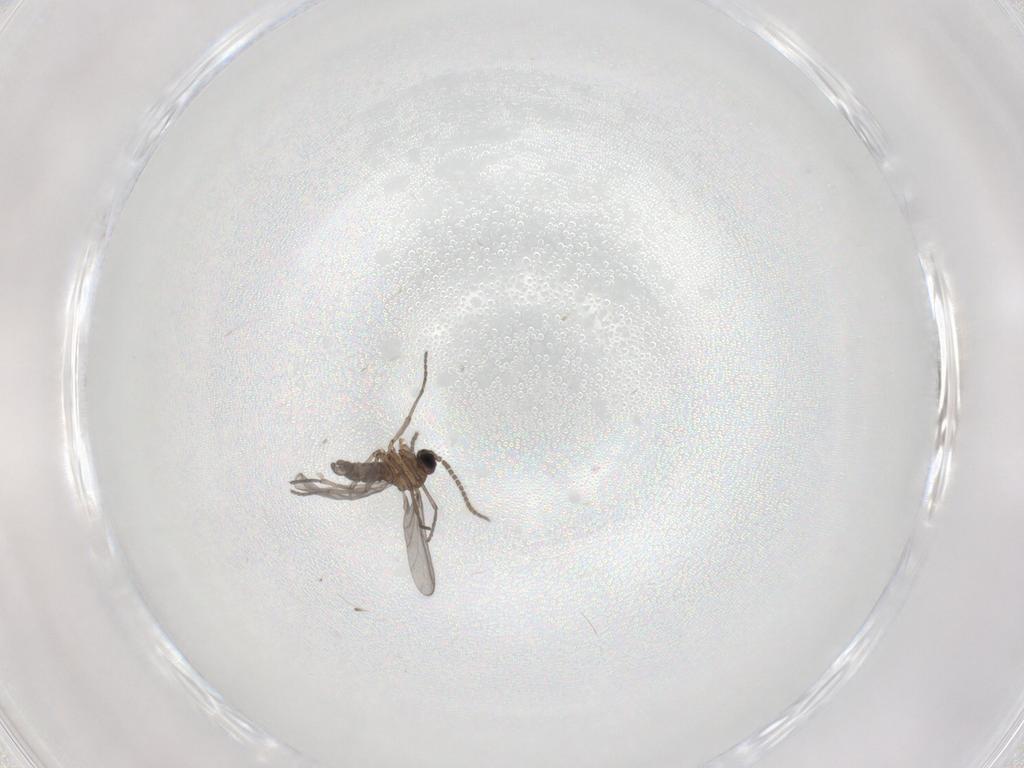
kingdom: Animalia
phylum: Arthropoda
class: Insecta
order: Diptera
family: Sciaridae
